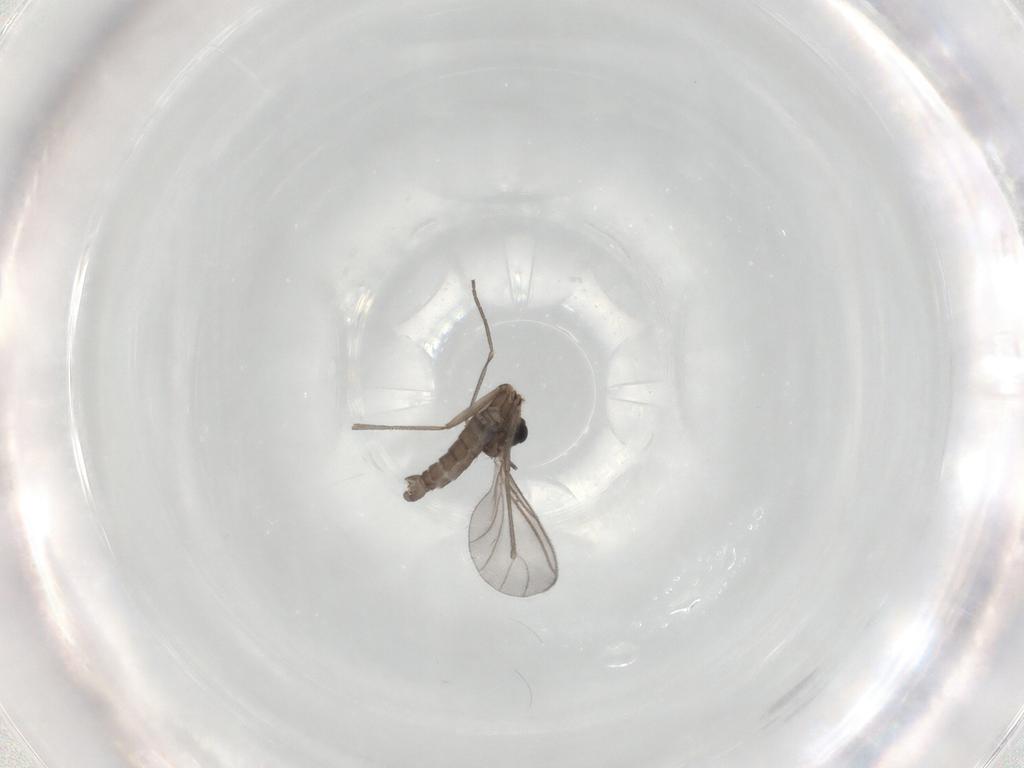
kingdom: Animalia
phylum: Arthropoda
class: Insecta
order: Diptera
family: Sciaridae
